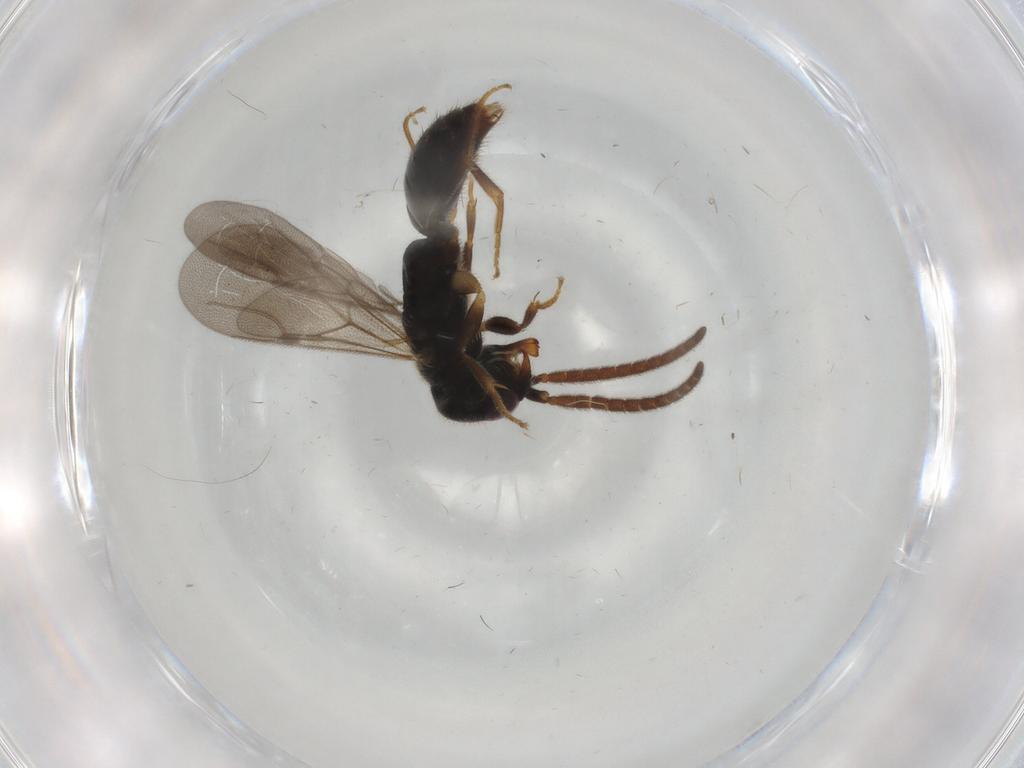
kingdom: Animalia
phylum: Arthropoda
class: Insecta
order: Hymenoptera
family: Bethylidae
